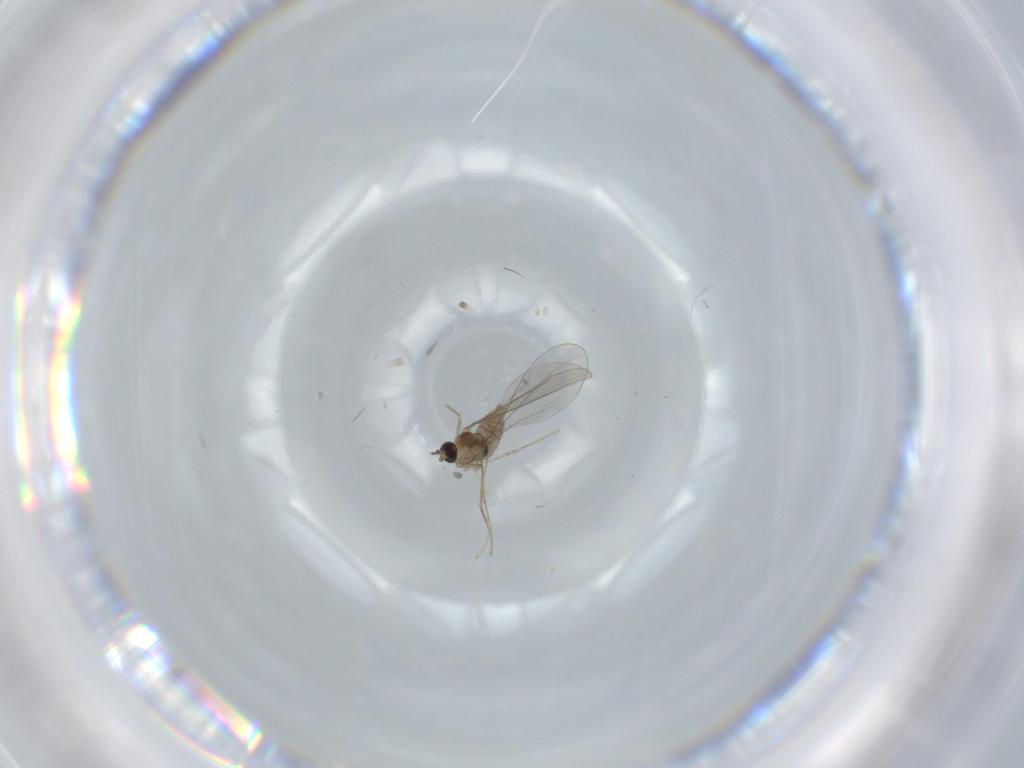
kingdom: Animalia
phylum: Arthropoda
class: Insecta
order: Diptera
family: Cecidomyiidae
